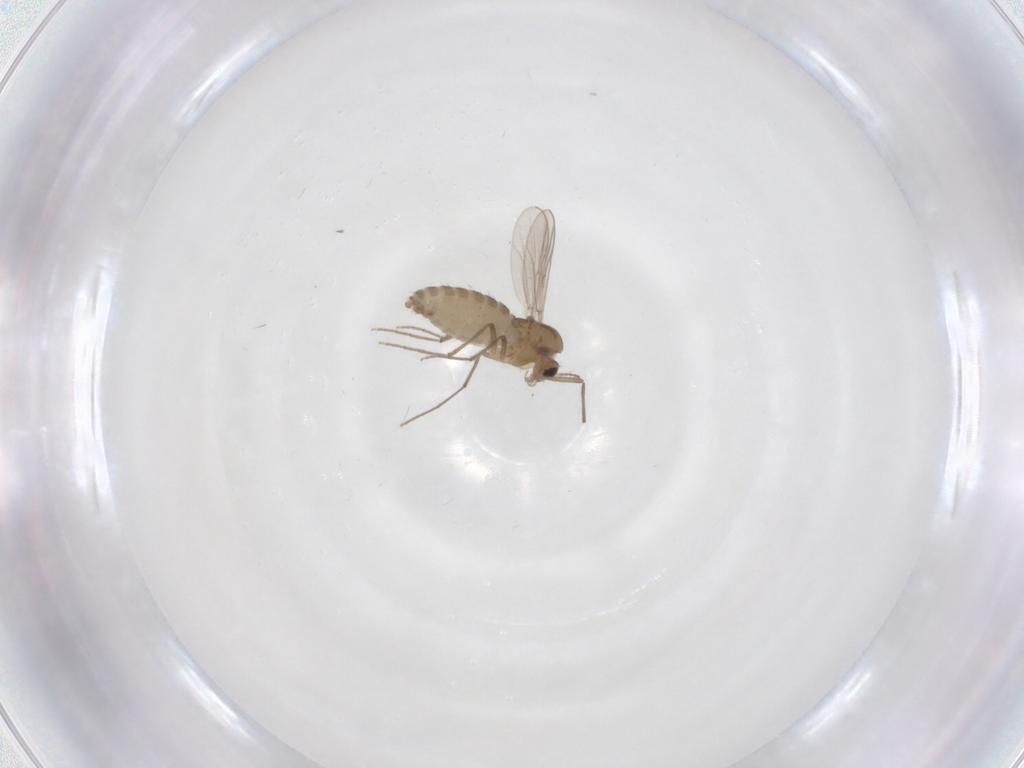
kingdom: Animalia
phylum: Arthropoda
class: Insecta
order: Diptera
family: Chironomidae
